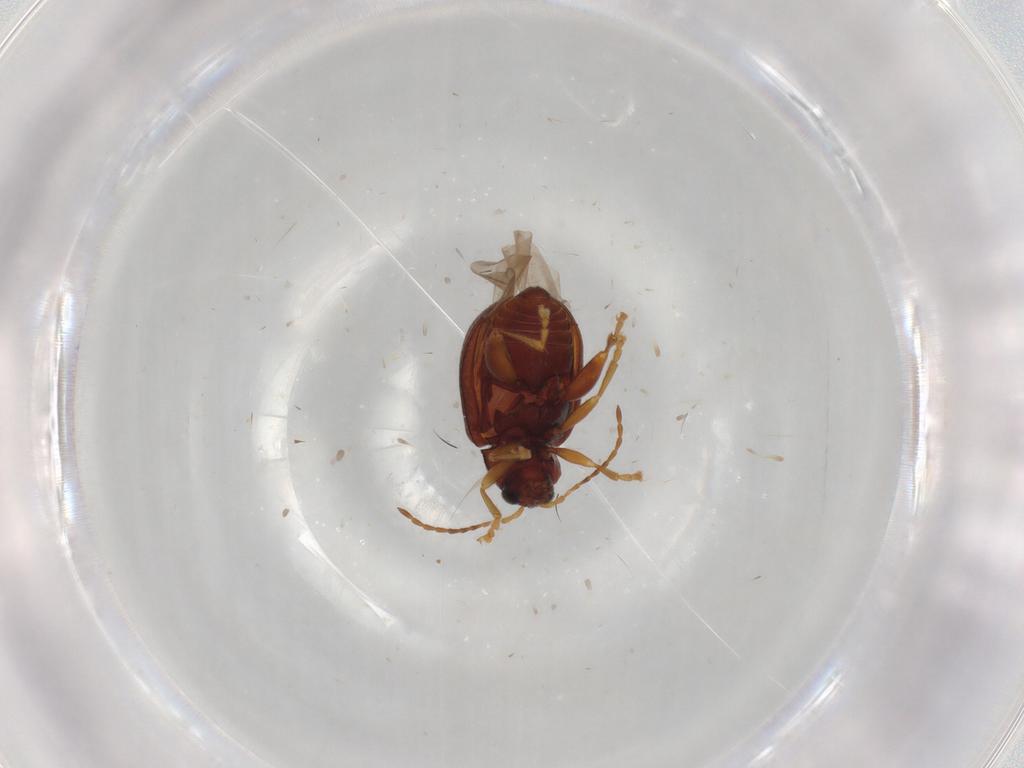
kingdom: Animalia
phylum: Arthropoda
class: Insecta
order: Coleoptera
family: Chrysomelidae
